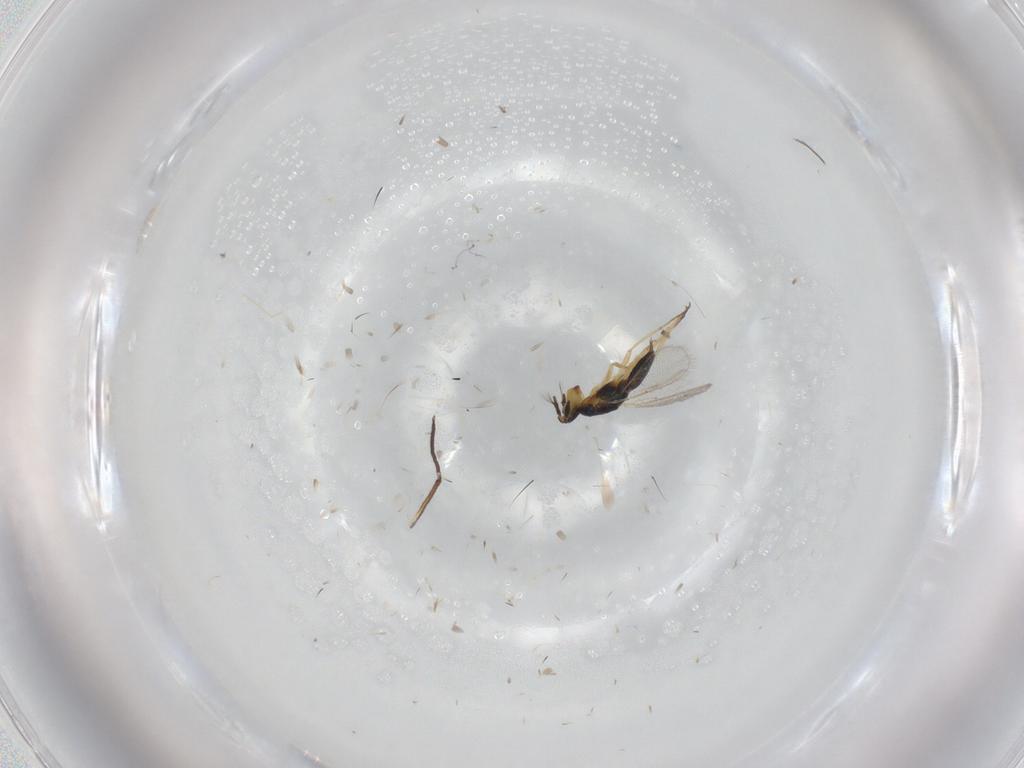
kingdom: Animalia
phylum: Arthropoda
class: Insecta
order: Hymenoptera
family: Eulophidae
